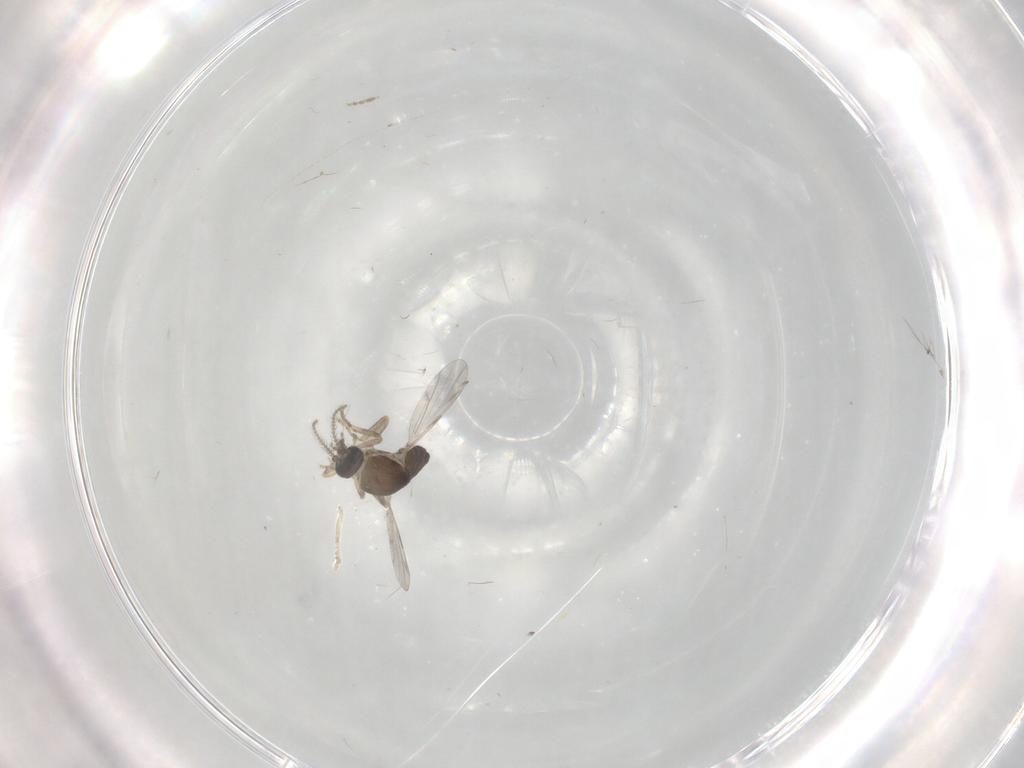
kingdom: Animalia
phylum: Arthropoda
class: Insecta
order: Diptera
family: Ceratopogonidae
